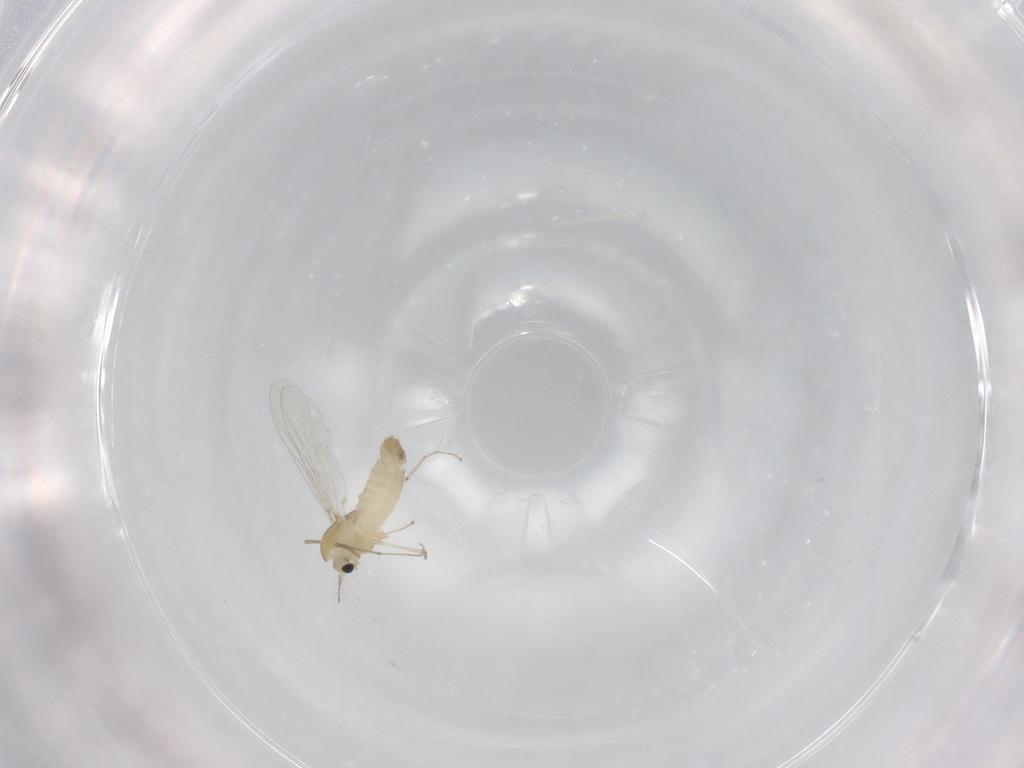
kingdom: Animalia
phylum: Arthropoda
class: Insecta
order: Diptera
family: Chironomidae
